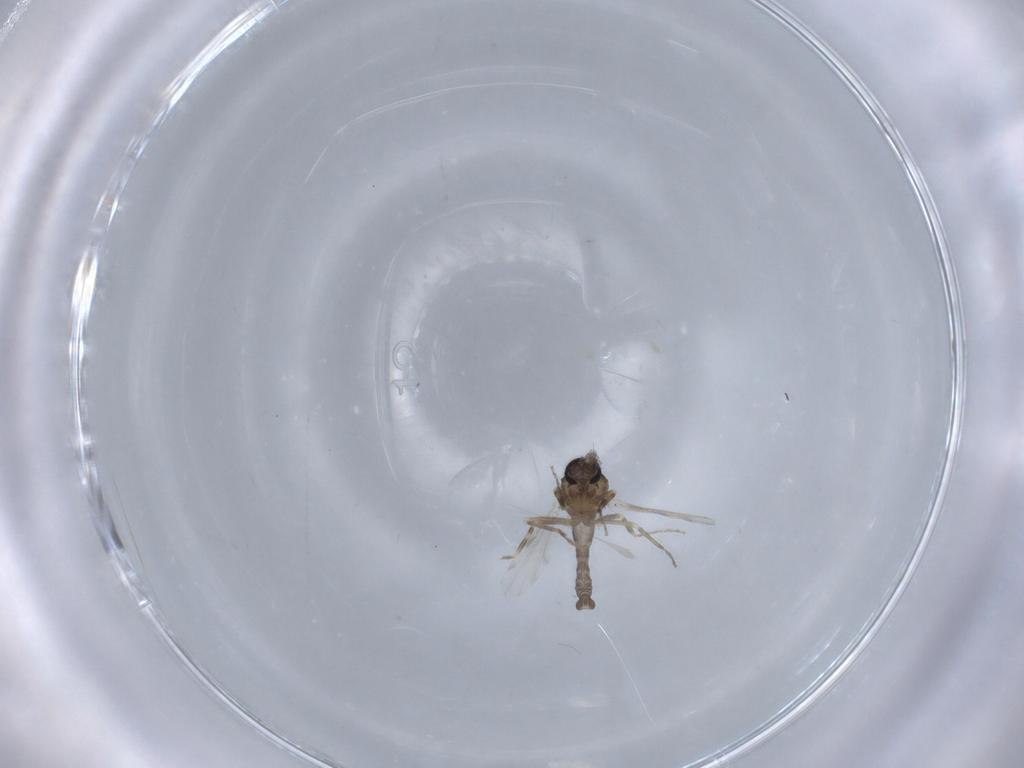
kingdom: Animalia
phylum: Arthropoda
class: Insecta
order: Diptera
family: Ceratopogonidae
